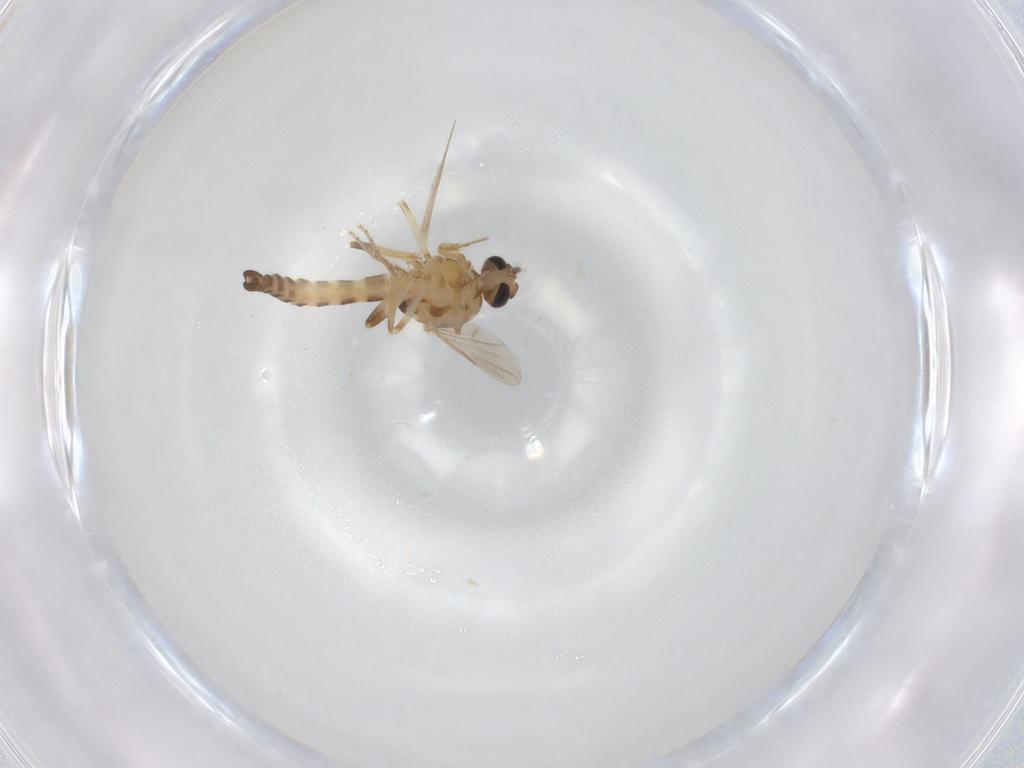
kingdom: Animalia
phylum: Arthropoda
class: Insecta
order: Diptera
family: Ceratopogonidae
